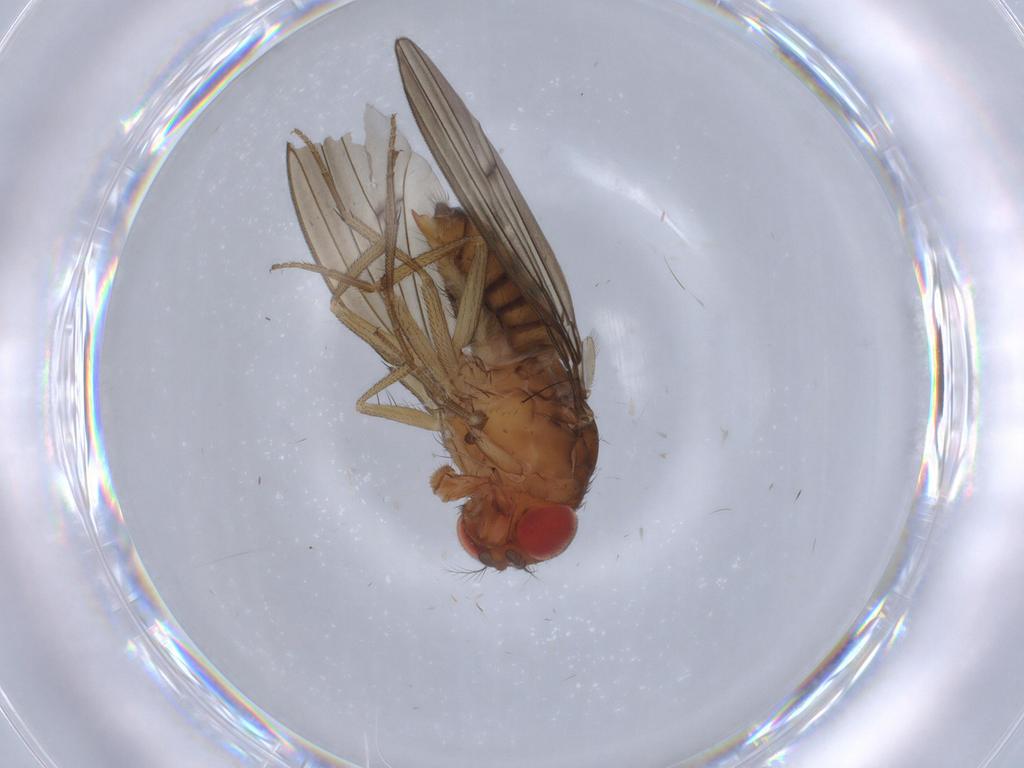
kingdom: Animalia
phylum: Arthropoda
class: Insecta
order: Diptera
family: Drosophilidae
